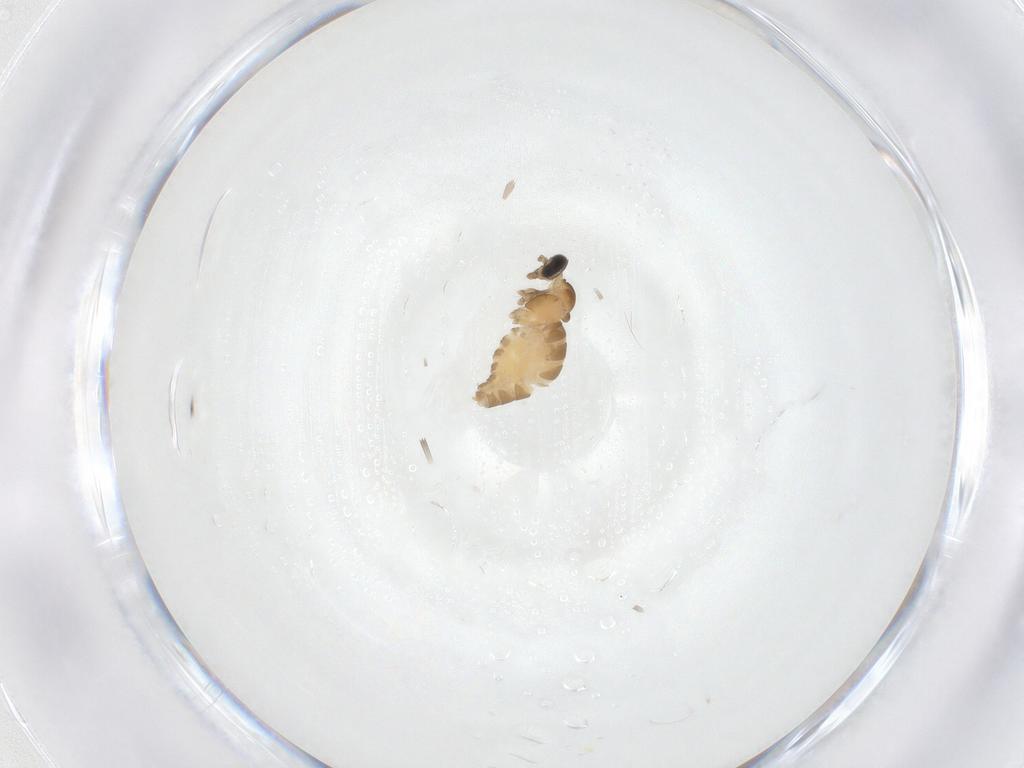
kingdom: Animalia
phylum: Arthropoda
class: Insecta
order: Diptera
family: Cecidomyiidae
